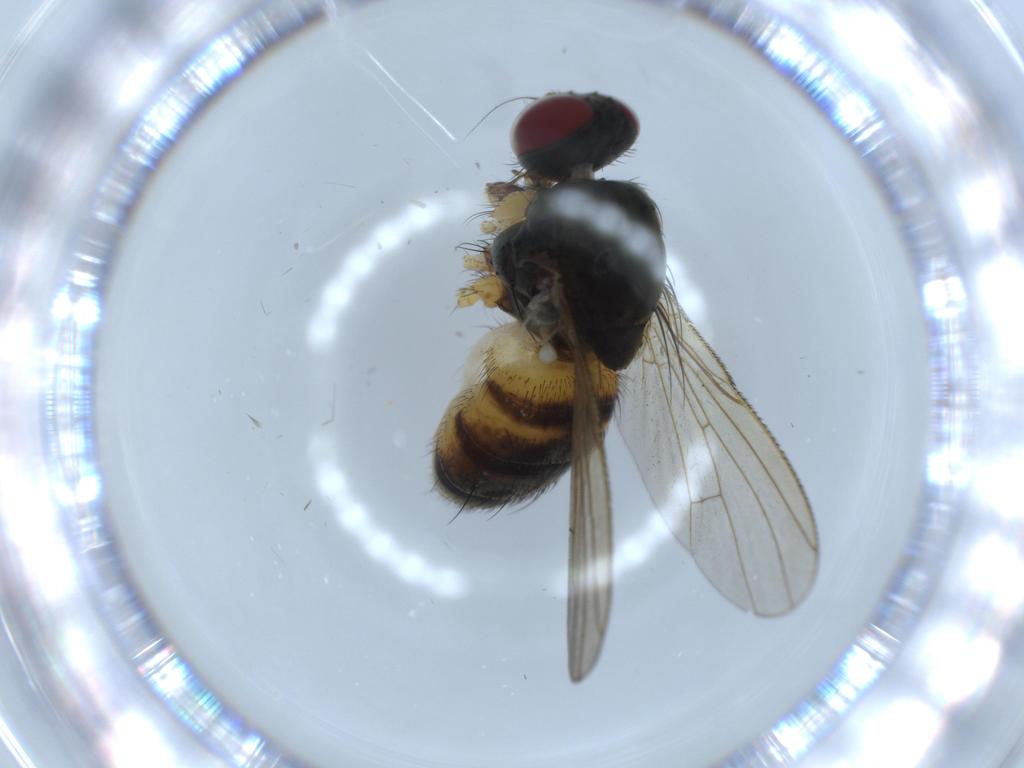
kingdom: Animalia
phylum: Arthropoda
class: Insecta
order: Diptera
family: Muscidae
